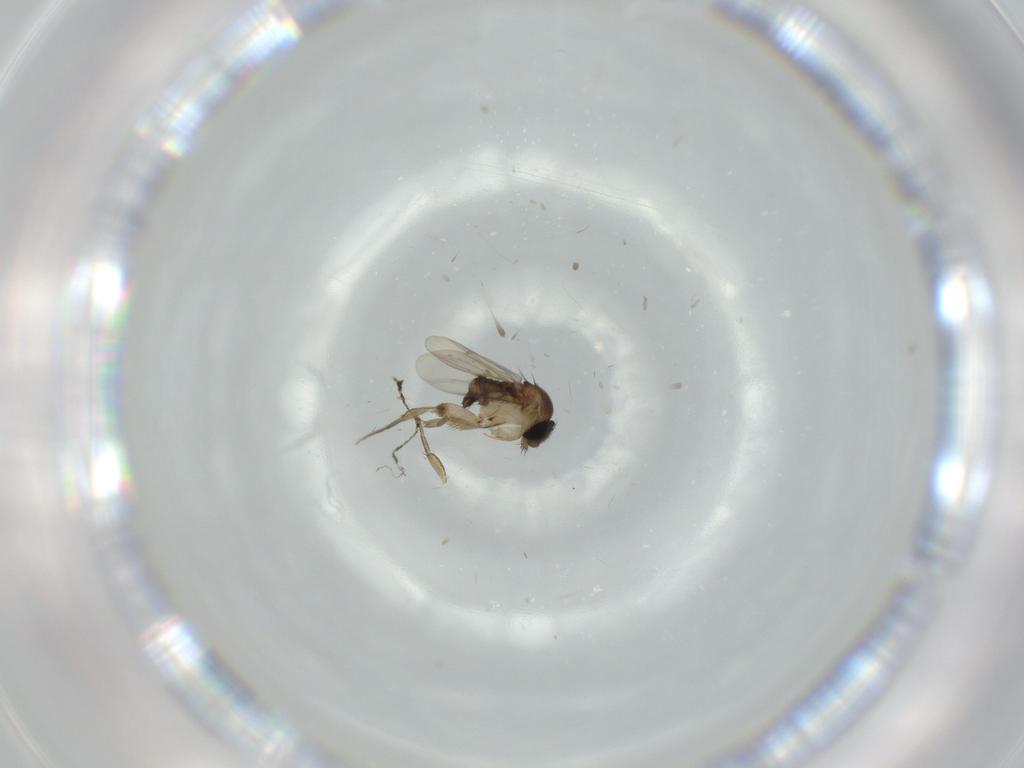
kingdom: Animalia
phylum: Arthropoda
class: Insecta
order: Diptera
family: Phoridae
